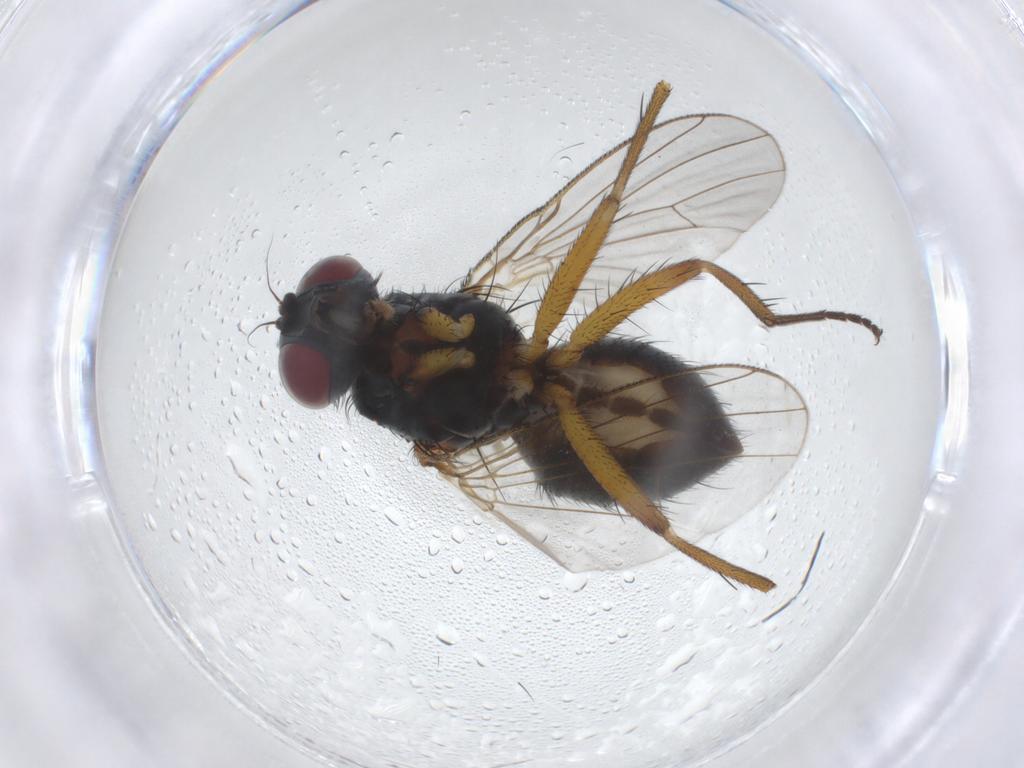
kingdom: Animalia
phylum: Arthropoda
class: Insecta
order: Diptera
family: Muscidae
